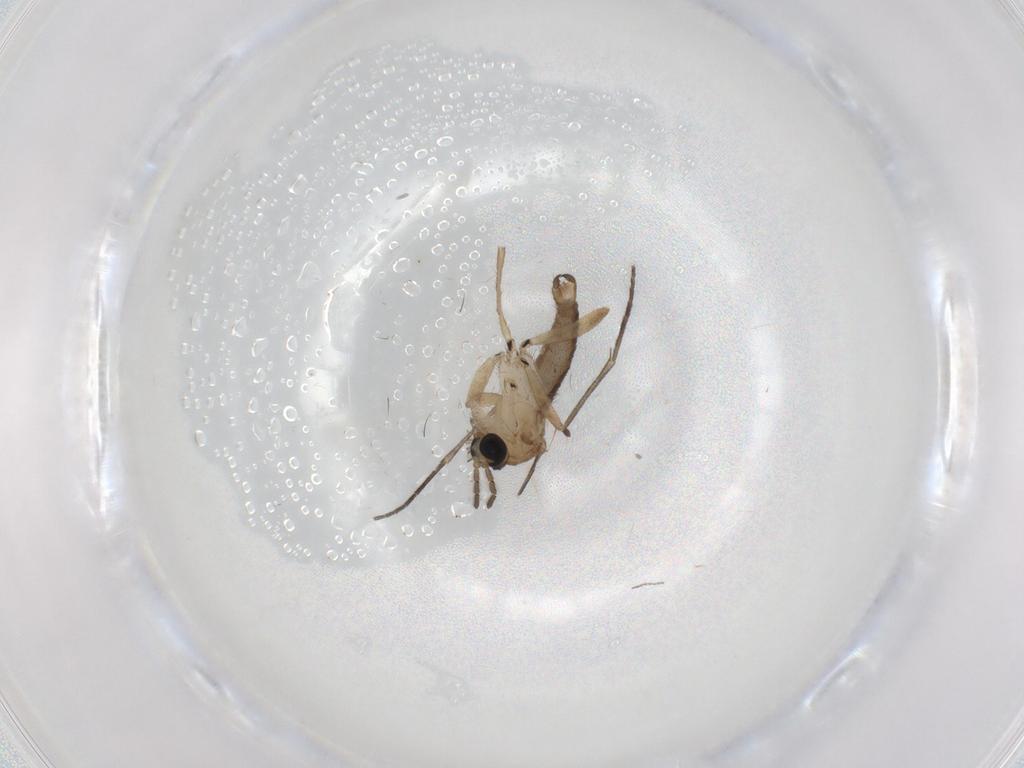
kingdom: Animalia
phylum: Arthropoda
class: Insecta
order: Diptera
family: Sciaridae
